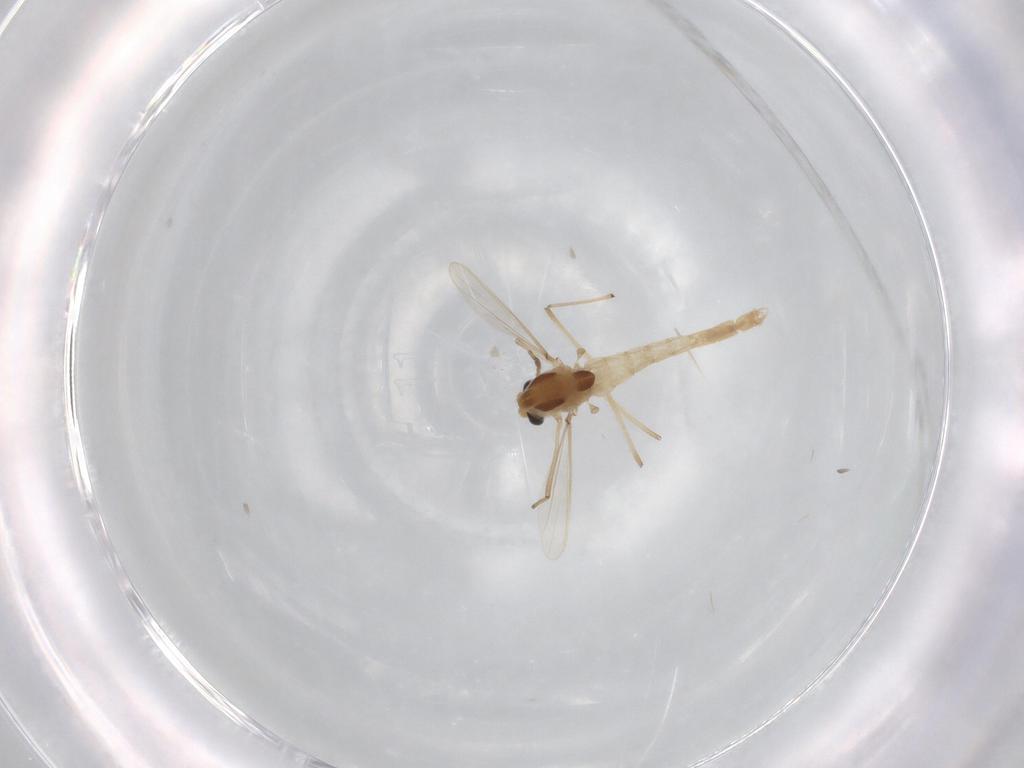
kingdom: Animalia
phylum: Arthropoda
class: Insecta
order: Diptera
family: Chironomidae
